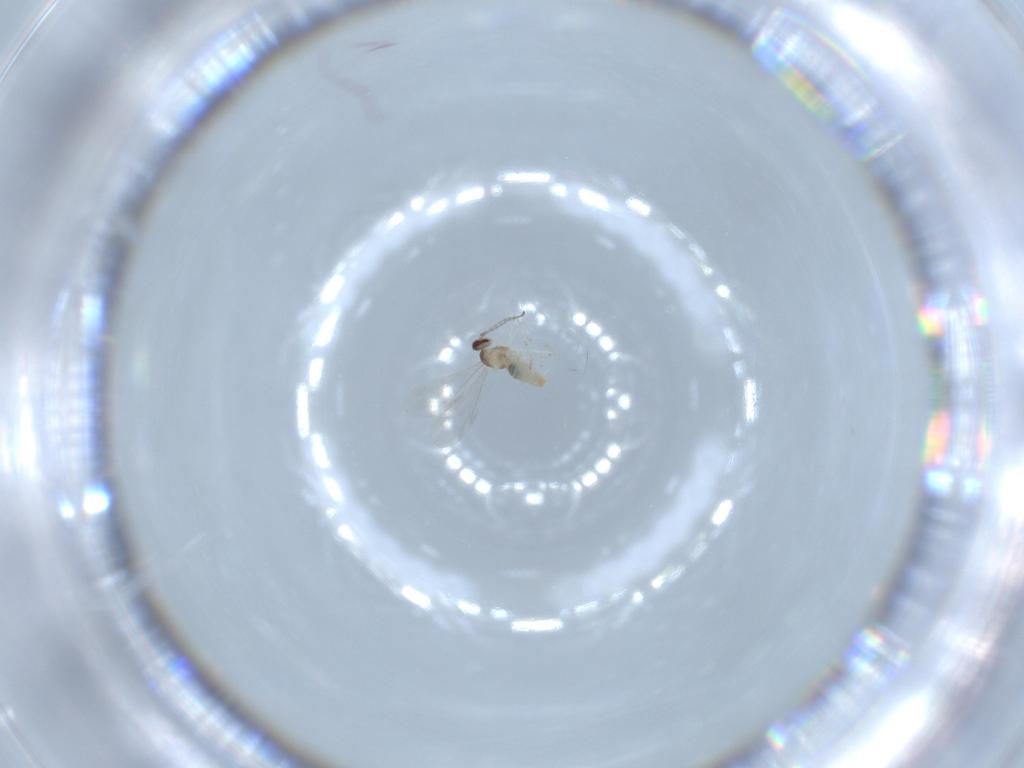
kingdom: Animalia
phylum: Arthropoda
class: Insecta
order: Diptera
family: Cecidomyiidae
